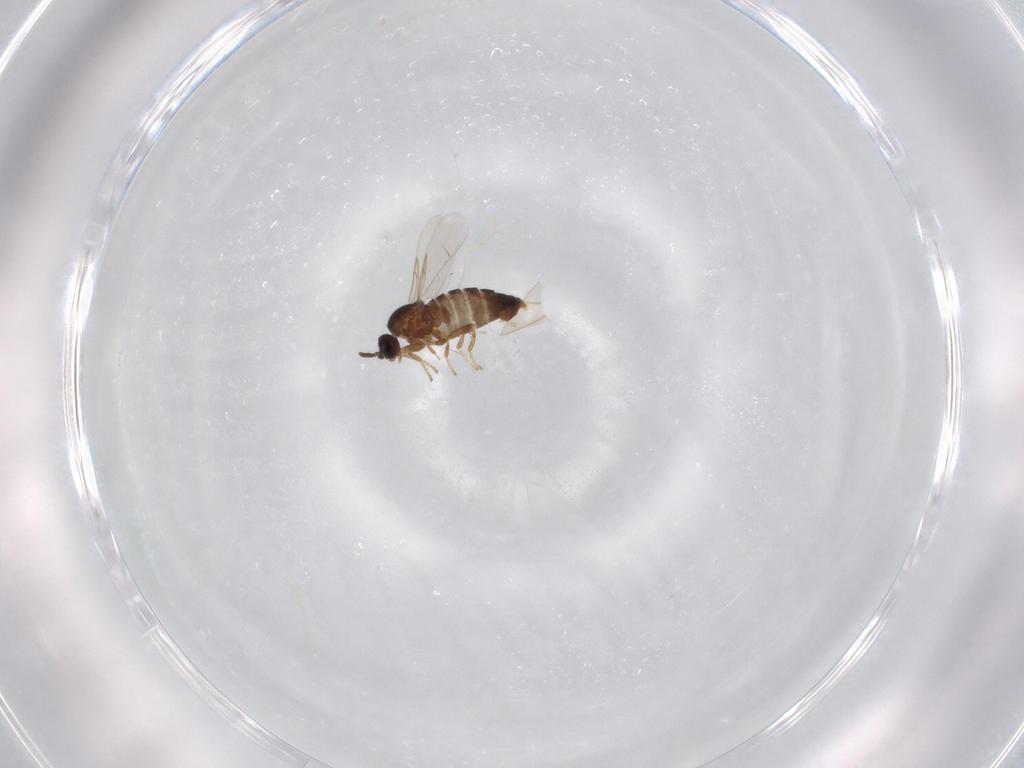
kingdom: Animalia
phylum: Arthropoda
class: Insecta
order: Diptera
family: Scatopsidae
